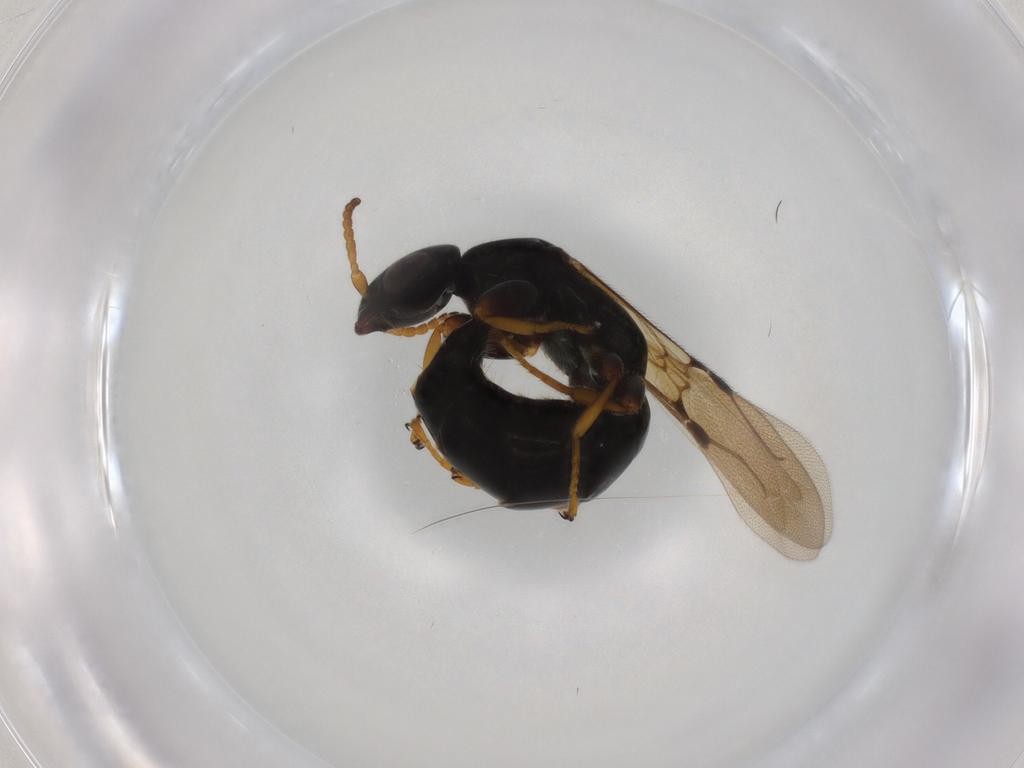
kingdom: Animalia
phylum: Arthropoda
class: Insecta
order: Hymenoptera
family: Bethylidae
